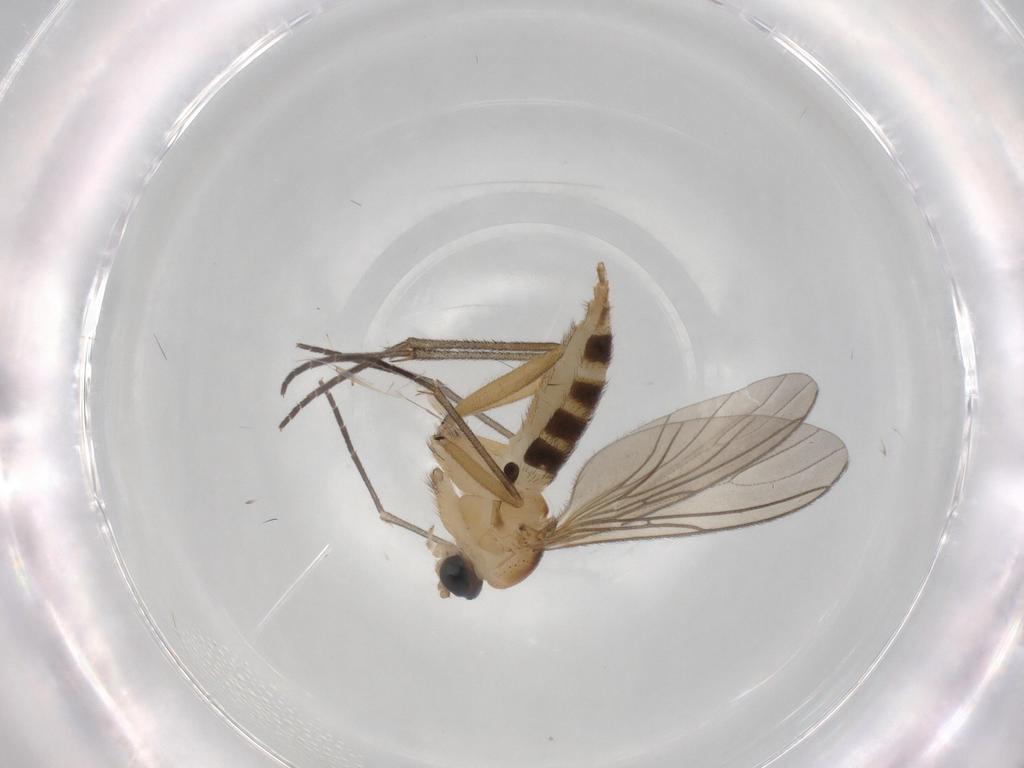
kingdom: Animalia
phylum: Arthropoda
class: Insecta
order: Diptera
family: Sciaridae
